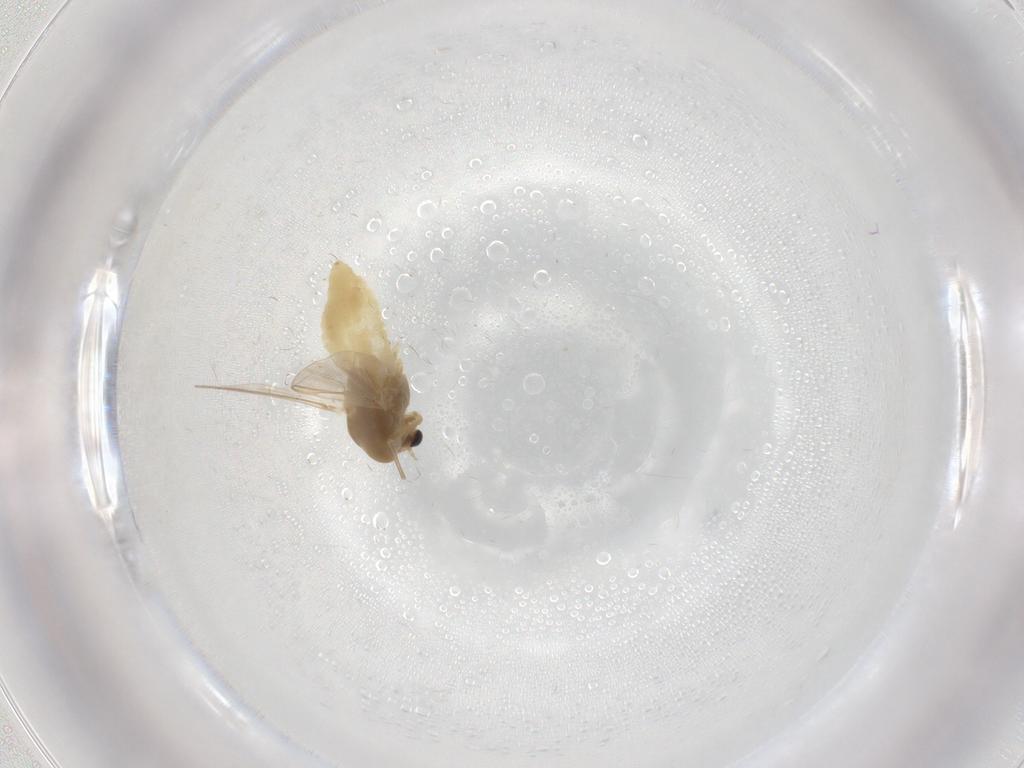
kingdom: Animalia
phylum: Arthropoda
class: Insecta
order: Diptera
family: Chironomidae
